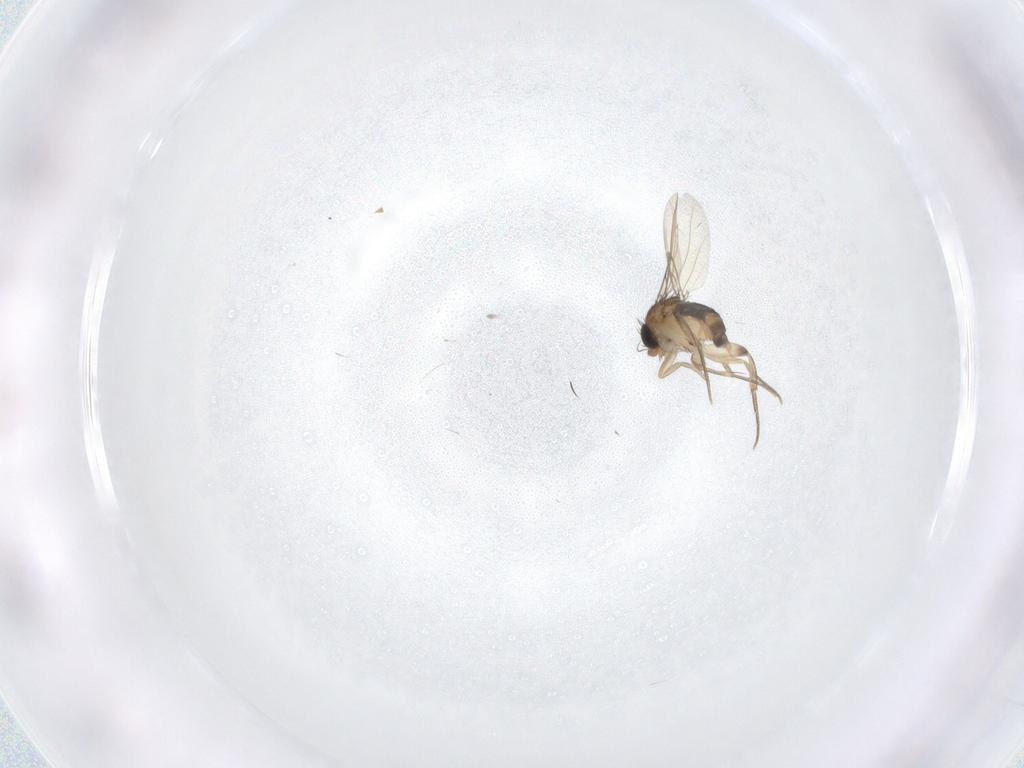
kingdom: Animalia
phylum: Arthropoda
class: Insecta
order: Diptera
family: Phoridae
